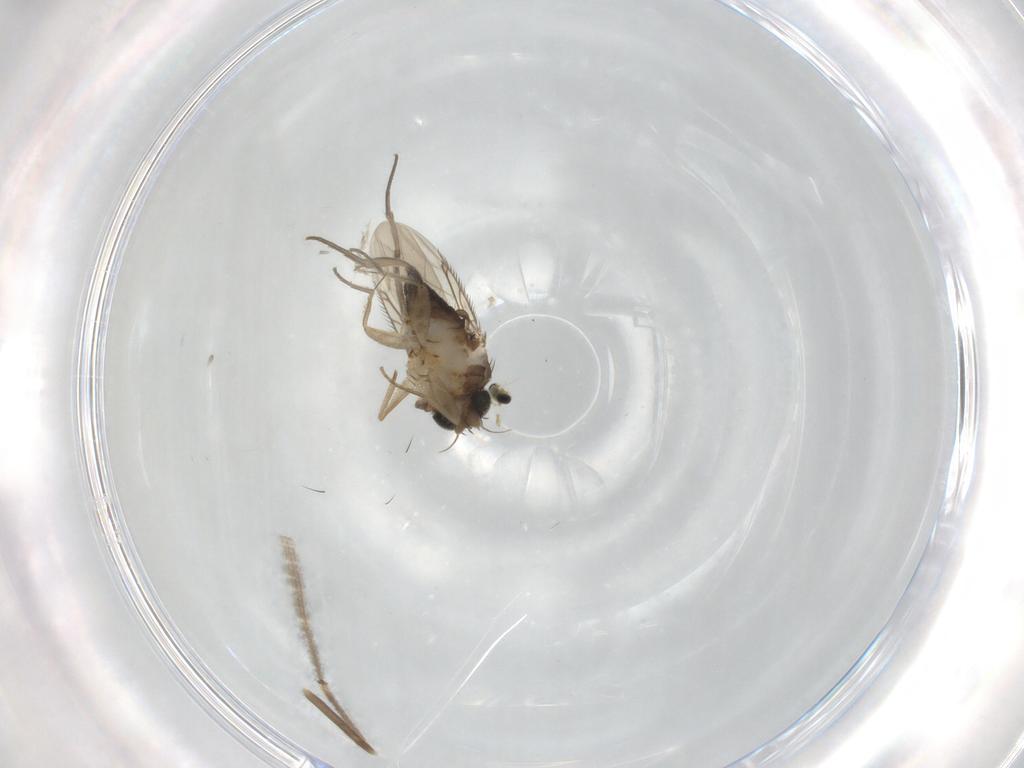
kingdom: Animalia
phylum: Arthropoda
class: Insecta
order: Diptera
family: Phoridae
